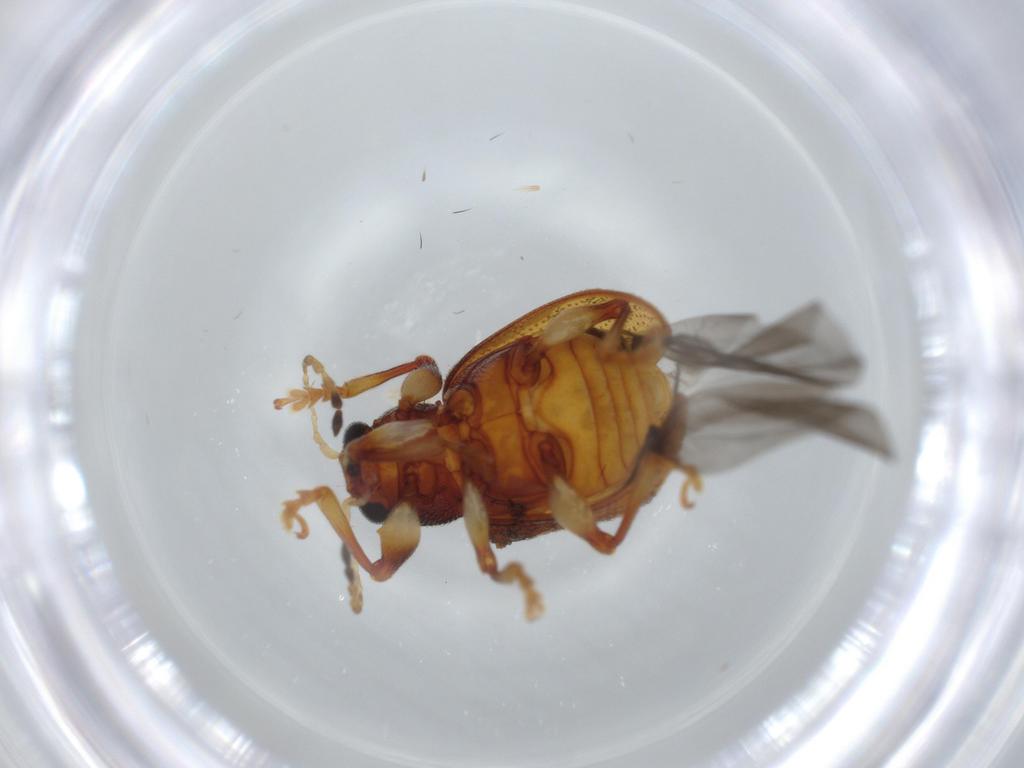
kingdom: Animalia
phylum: Arthropoda
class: Insecta
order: Coleoptera
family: Chrysomelidae
